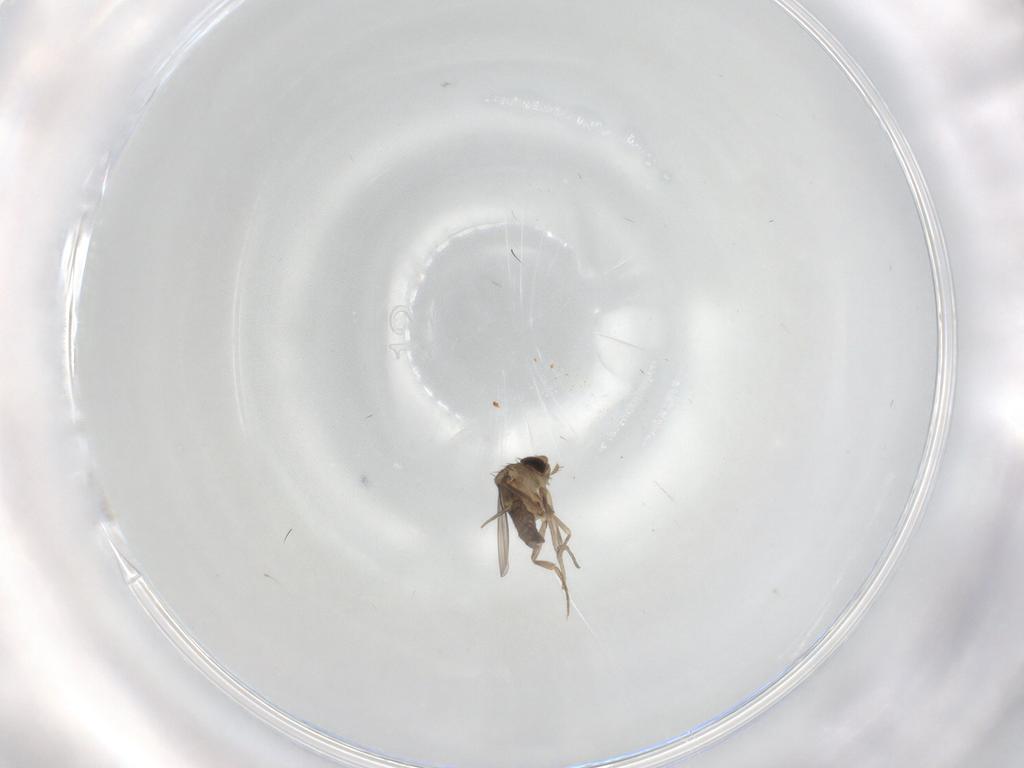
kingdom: Animalia
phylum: Arthropoda
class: Insecta
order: Diptera
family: Phoridae
